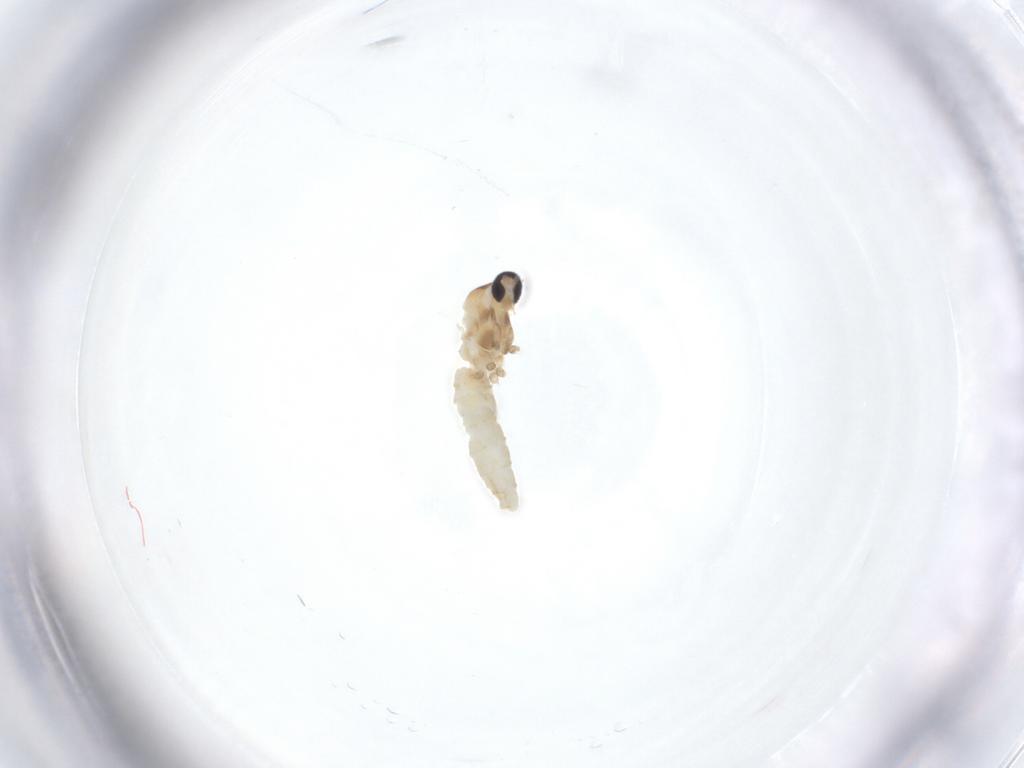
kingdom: Animalia
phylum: Arthropoda
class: Insecta
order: Diptera
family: Cecidomyiidae
